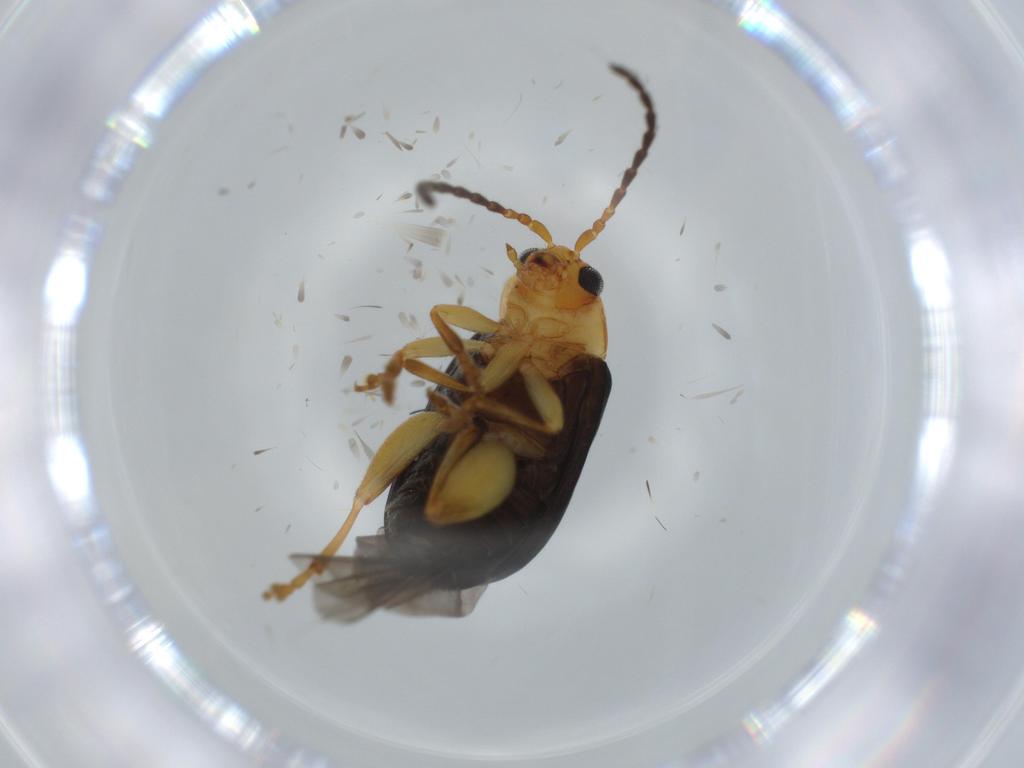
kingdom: Animalia
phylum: Arthropoda
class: Insecta
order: Coleoptera
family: Chrysomelidae
